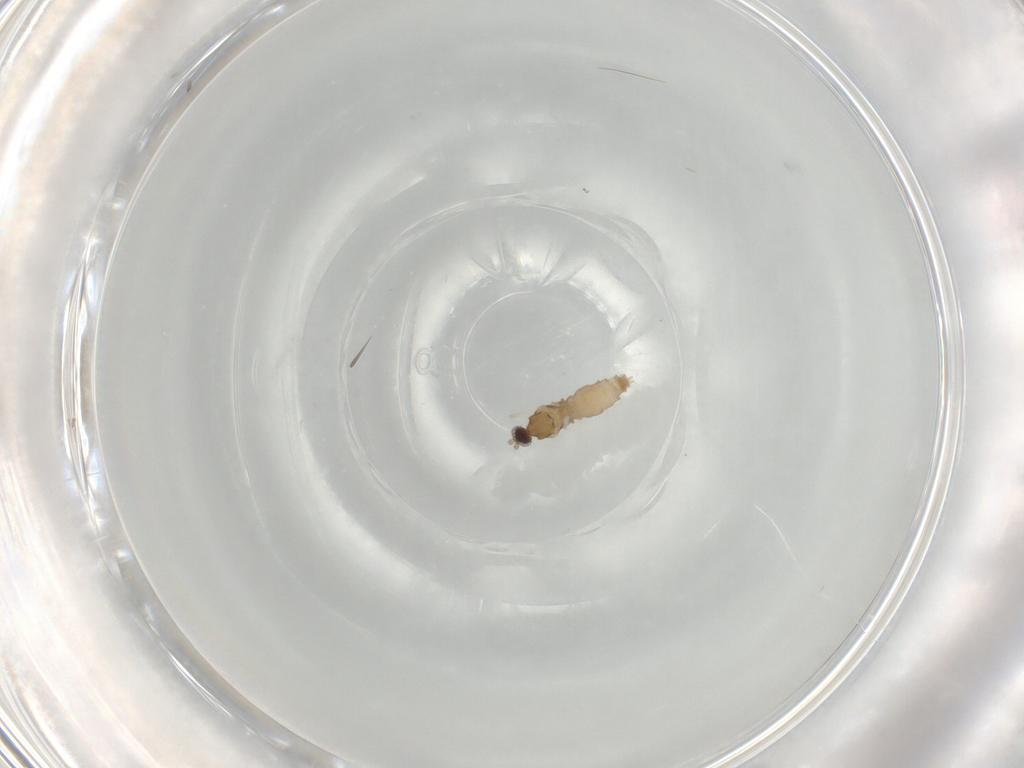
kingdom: Animalia
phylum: Arthropoda
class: Insecta
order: Diptera
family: Cecidomyiidae
